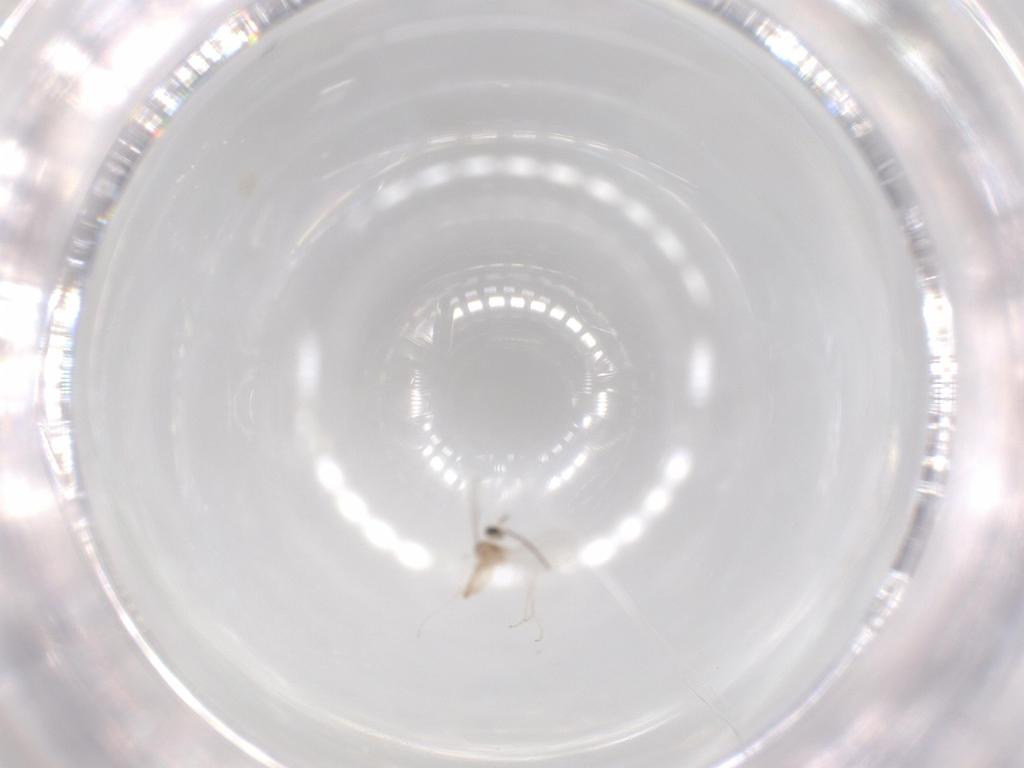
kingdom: Animalia
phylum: Arthropoda
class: Insecta
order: Diptera
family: Cecidomyiidae
